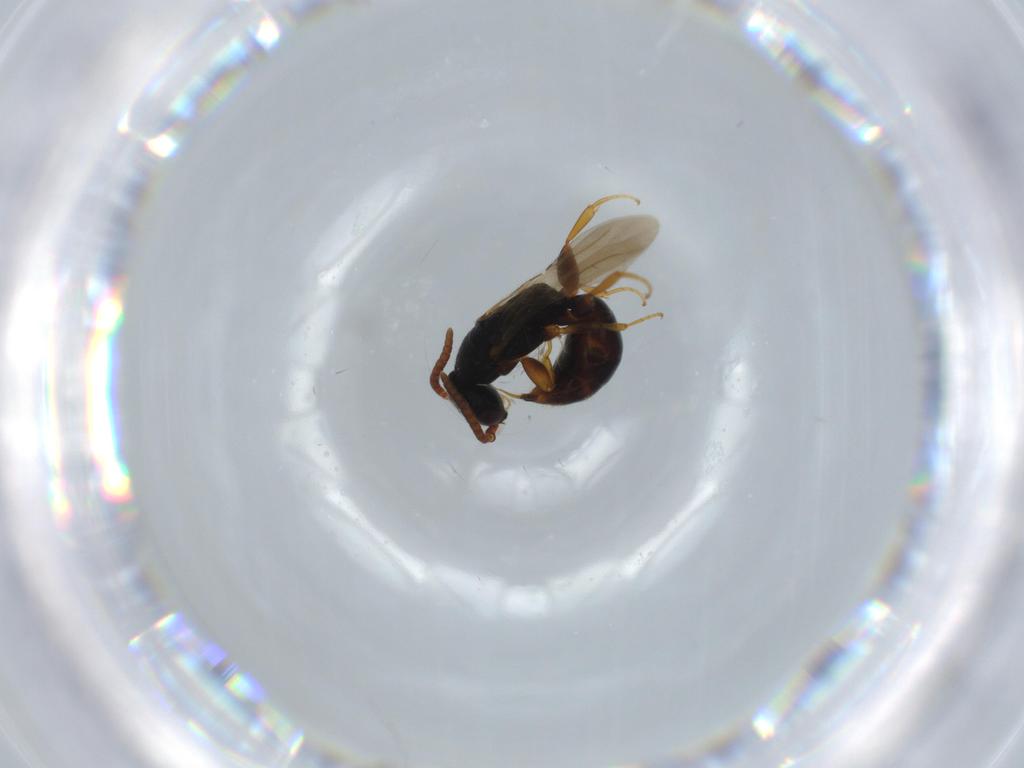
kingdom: Animalia
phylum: Arthropoda
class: Insecta
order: Hymenoptera
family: Bethylidae
